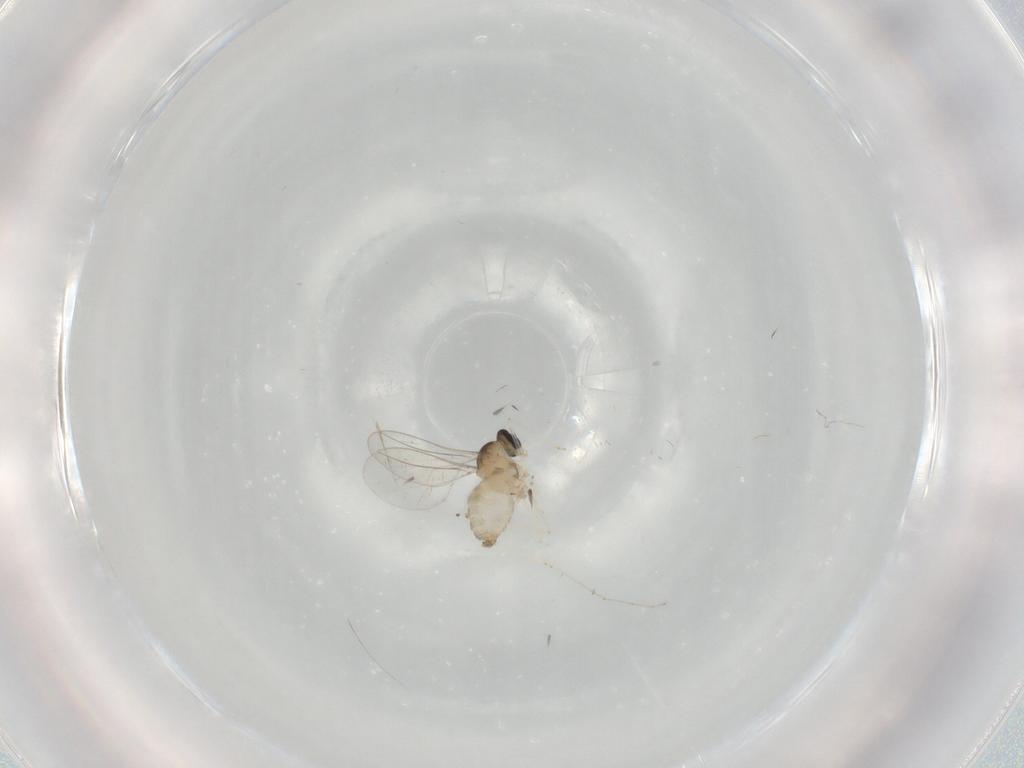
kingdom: Animalia
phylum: Arthropoda
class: Insecta
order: Diptera
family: Cecidomyiidae
